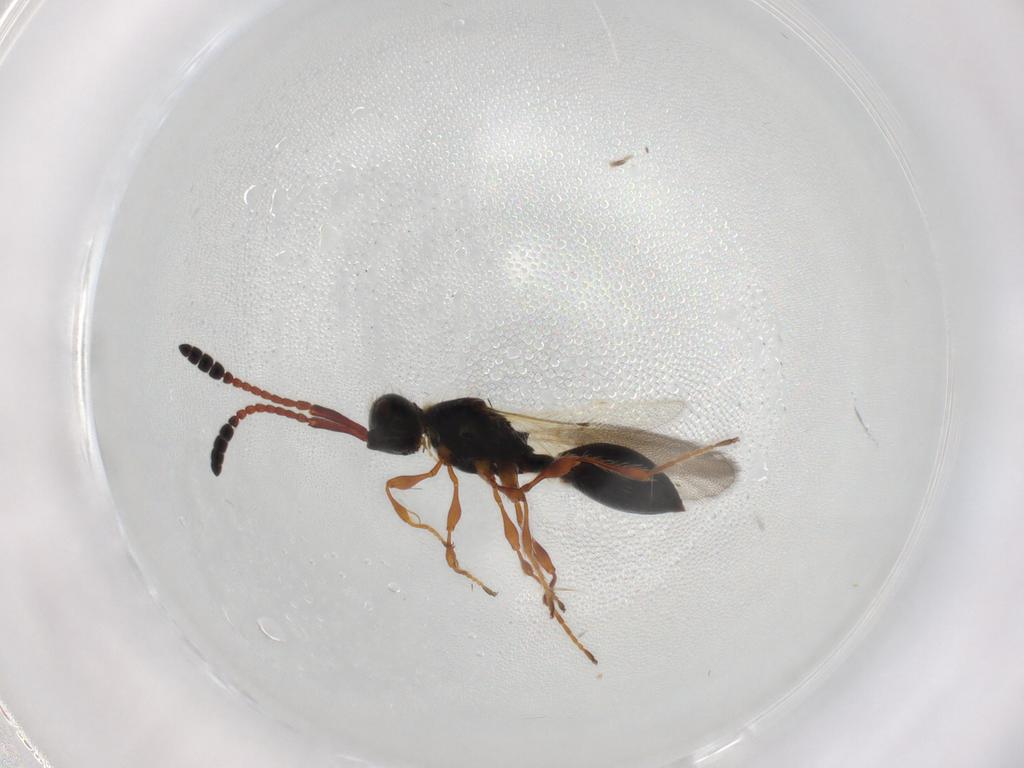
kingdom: Animalia
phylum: Arthropoda
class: Insecta
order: Hymenoptera
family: Diapriidae
